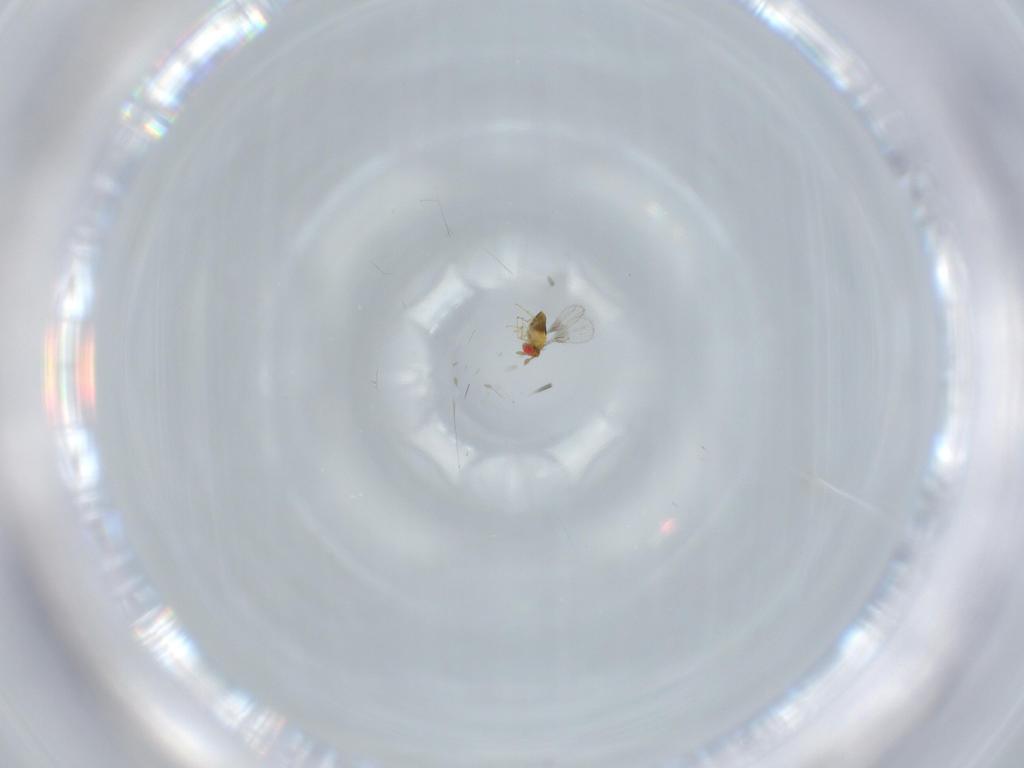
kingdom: Animalia
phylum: Arthropoda
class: Insecta
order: Hymenoptera
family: Trichogrammatidae
